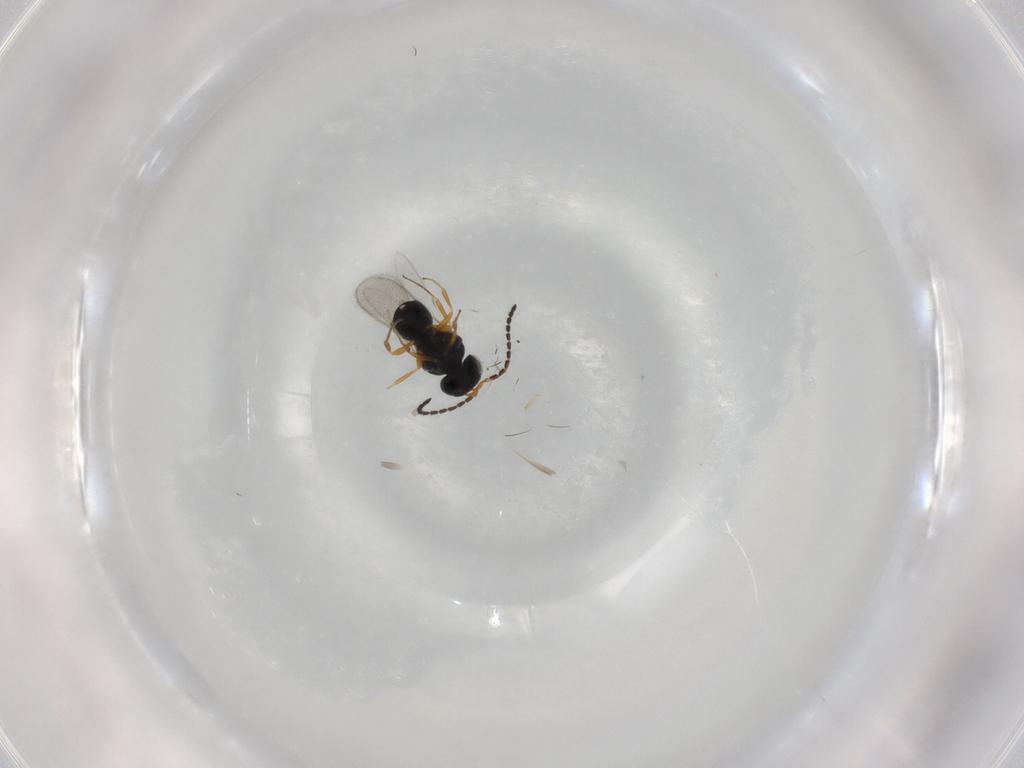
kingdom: Animalia
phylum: Arthropoda
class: Insecta
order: Hymenoptera
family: Scelionidae
